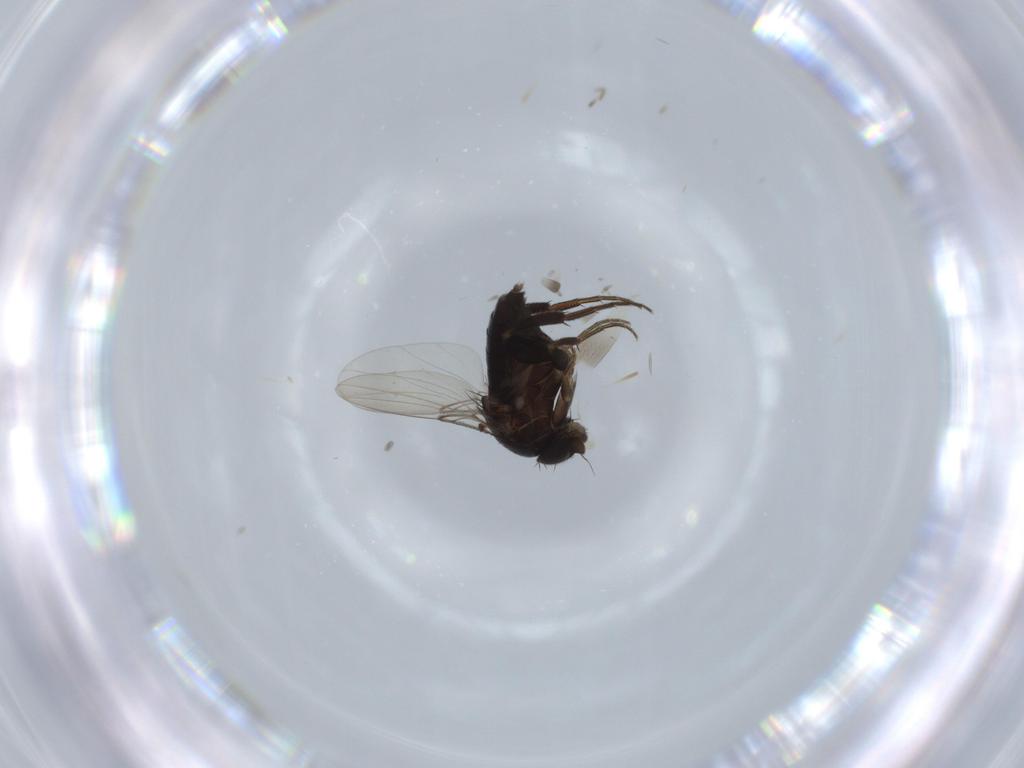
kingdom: Animalia
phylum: Arthropoda
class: Insecta
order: Diptera
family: Phoridae
